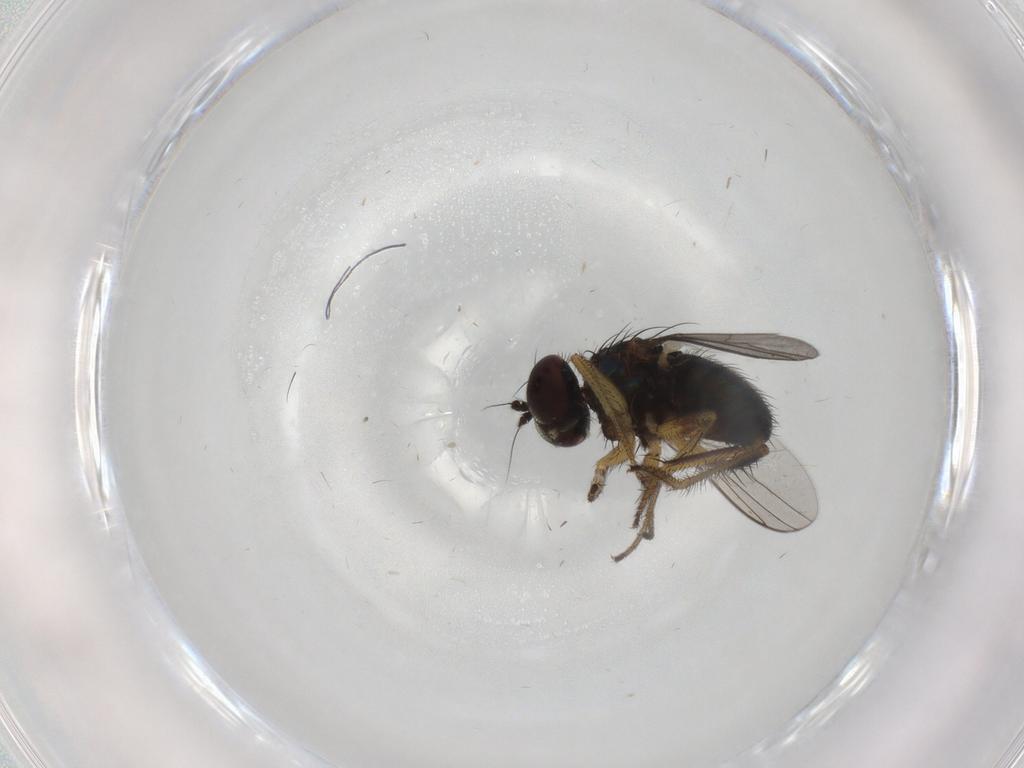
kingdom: Animalia
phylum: Arthropoda
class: Insecta
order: Diptera
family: Dolichopodidae
